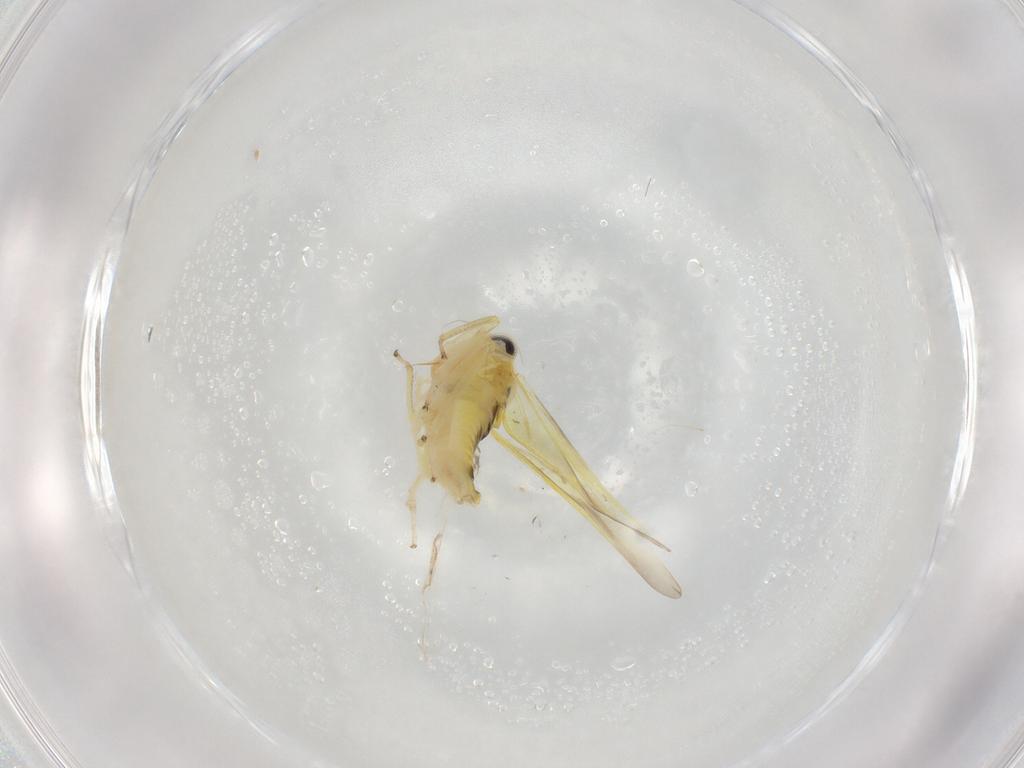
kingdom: Animalia
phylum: Arthropoda
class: Insecta
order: Hemiptera
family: Cicadellidae
